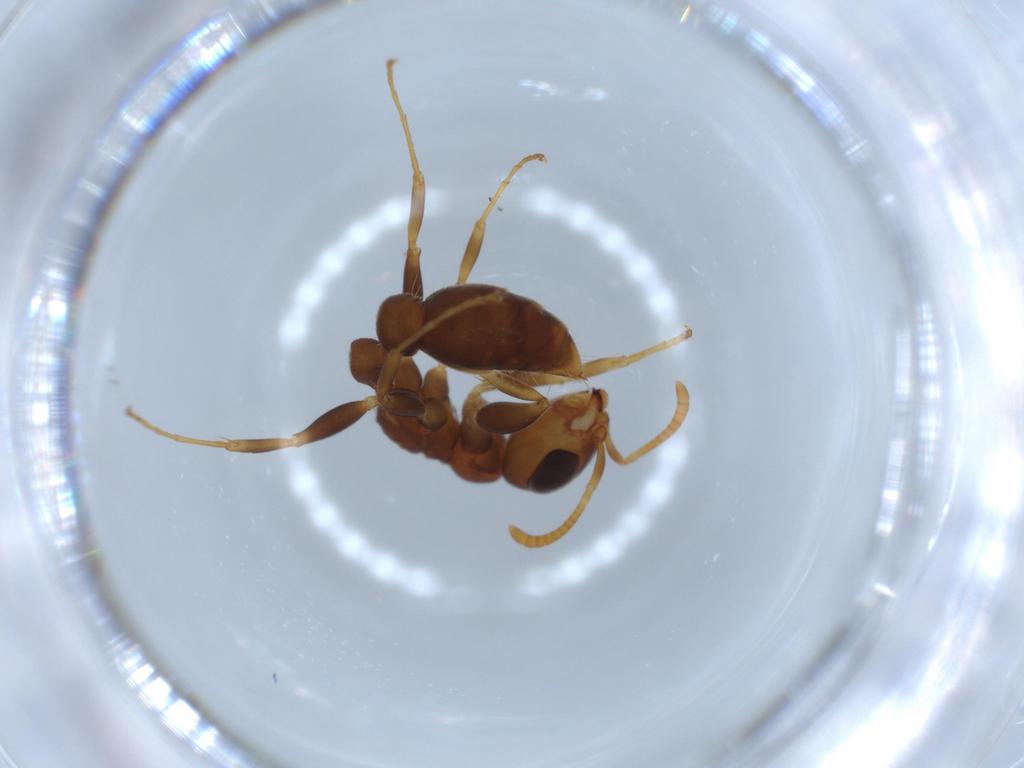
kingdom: Animalia
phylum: Arthropoda
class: Insecta
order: Hymenoptera
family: Formicidae
